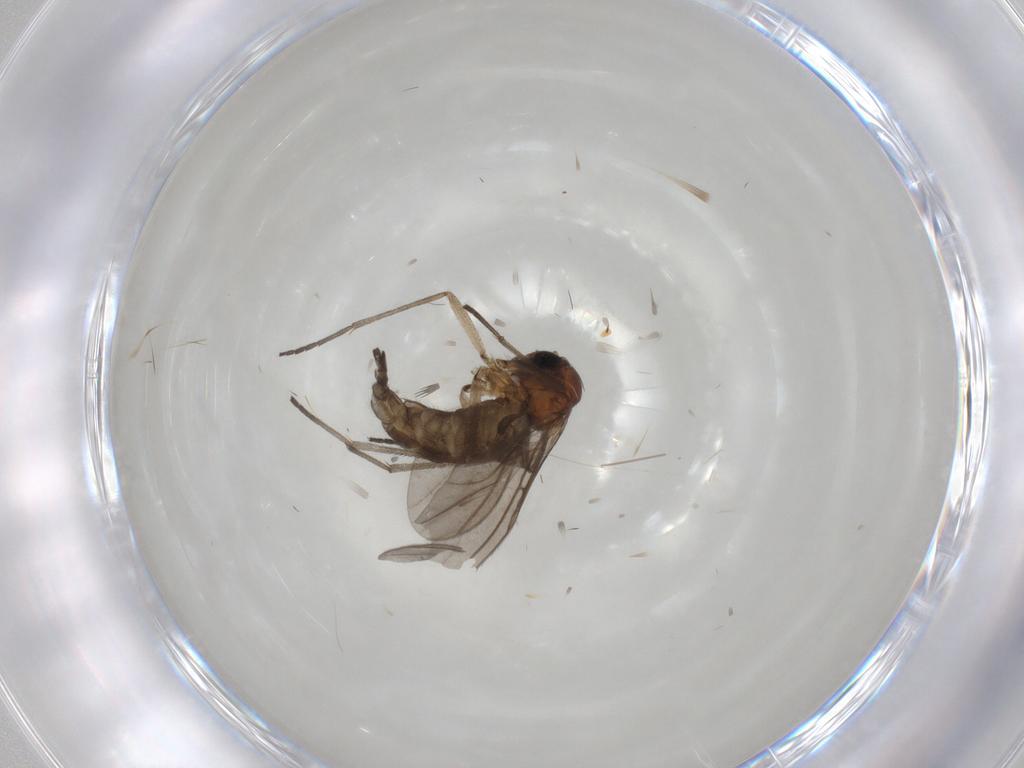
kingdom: Animalia
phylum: Arthropoda
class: Insecta
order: Diptera
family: Sciaridae
